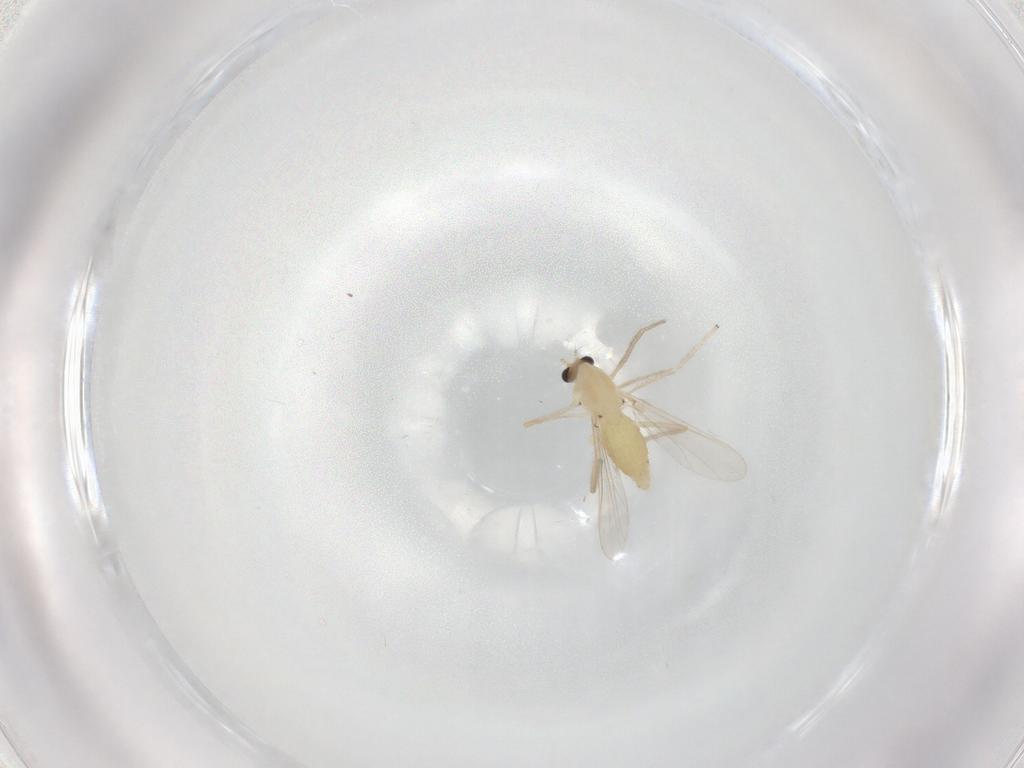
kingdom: Animalia
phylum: Arthropoda
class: Insecta
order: Diptera
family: Chironomidae
